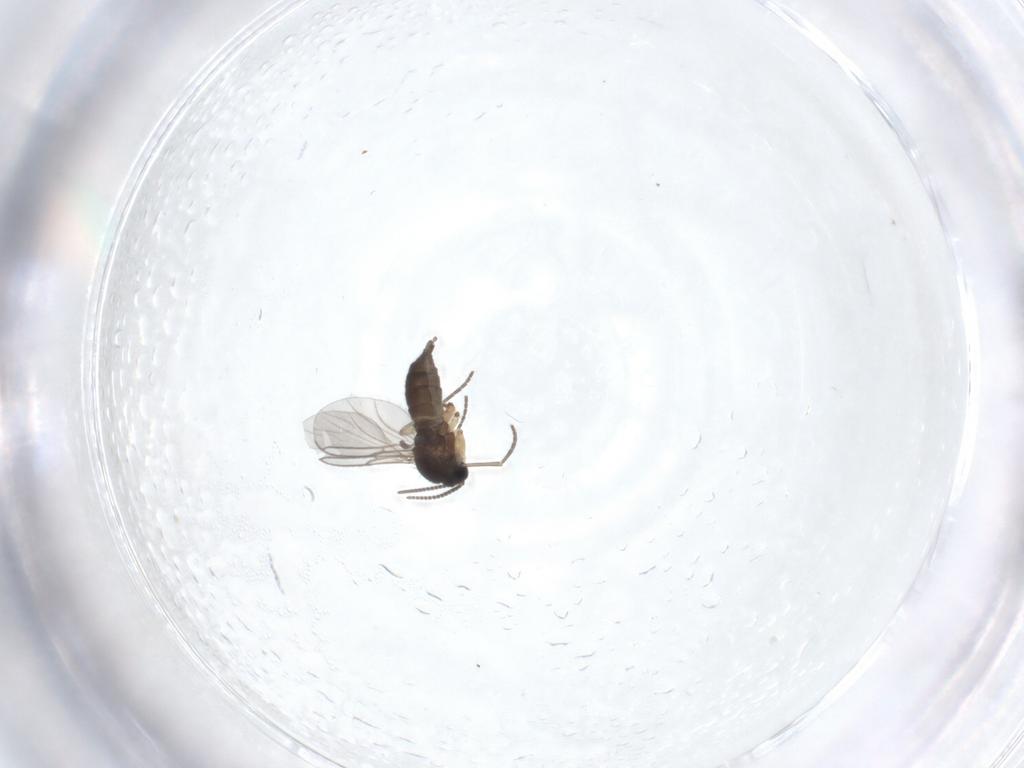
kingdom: Animalia
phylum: Arthropoda
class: Insecta
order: Diptera
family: Sciaridae
